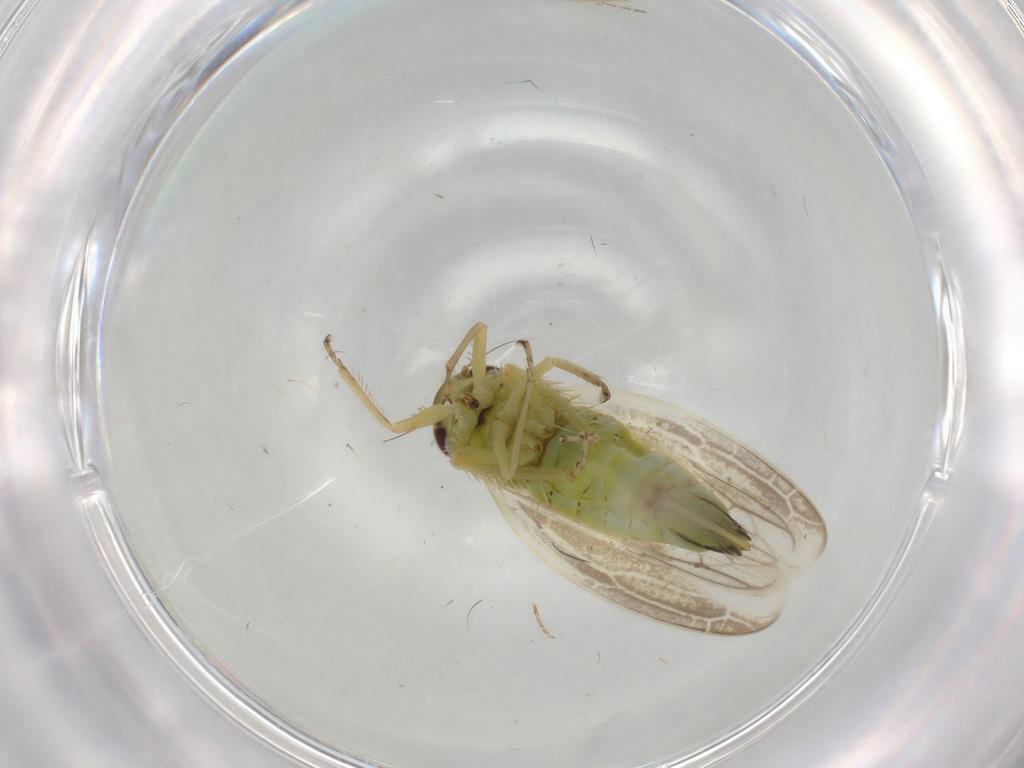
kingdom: Animalia
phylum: Arthropoda
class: Insecta
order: Hemiptera
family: Cicadellidae
